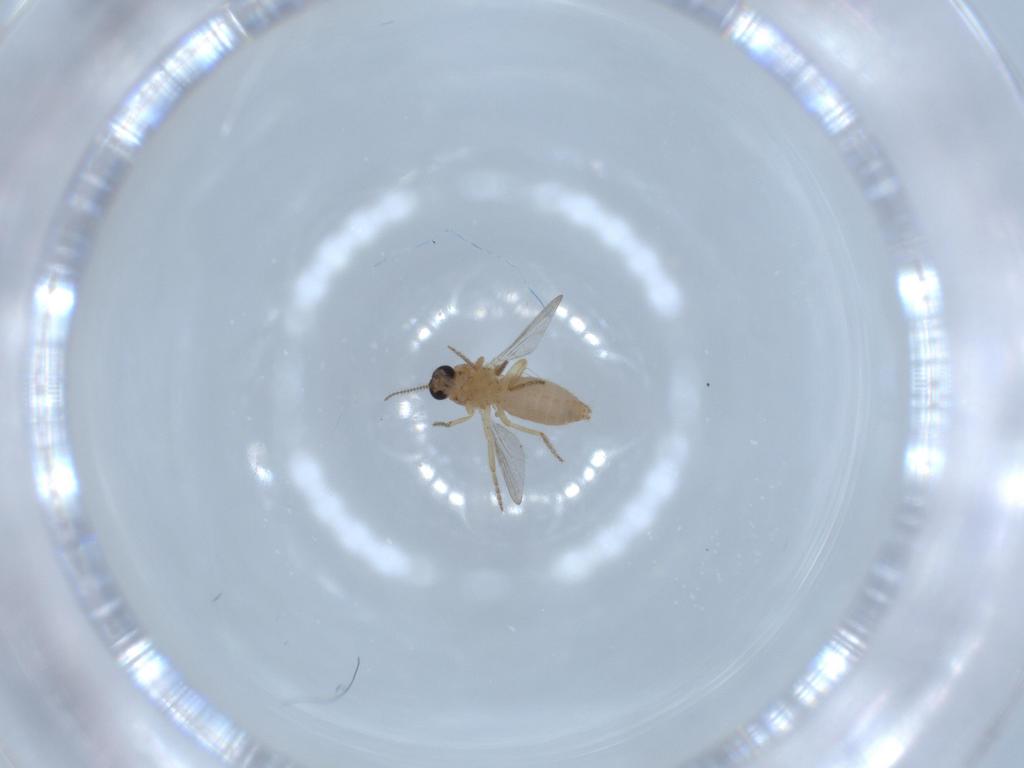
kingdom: Animalia
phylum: Arthropoda
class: Insecta
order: Diptera
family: Ceratopogonidae
